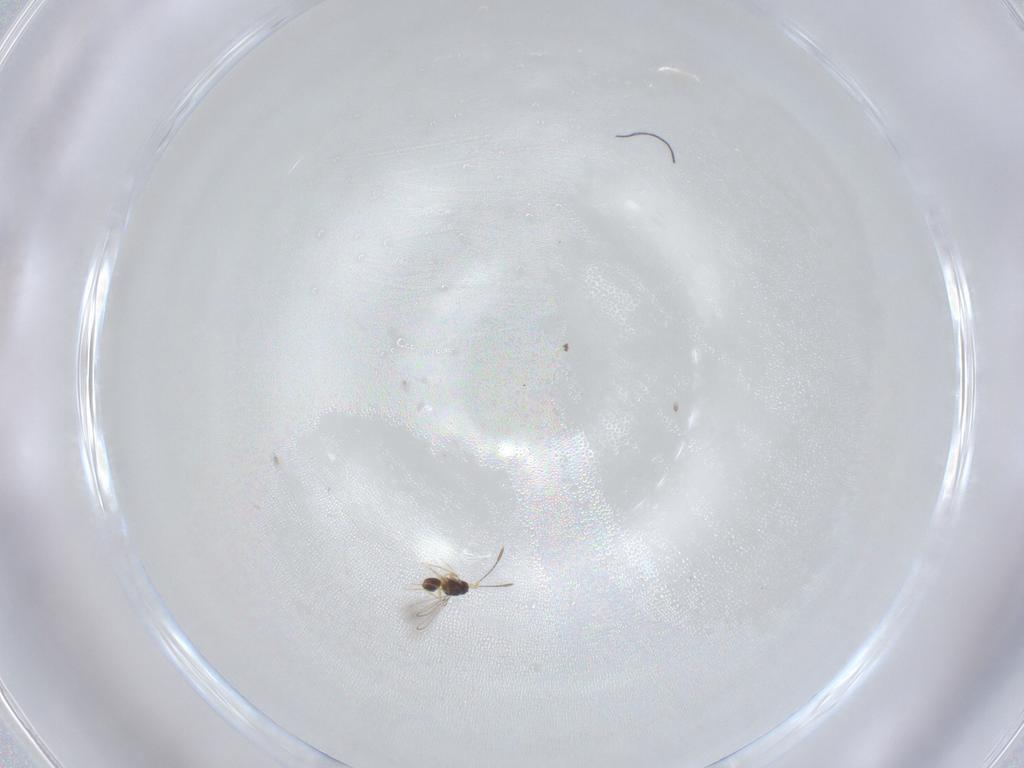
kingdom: Animalia
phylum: Arthropoda
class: Insecta
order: Hymenoptera
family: Mymaridae
